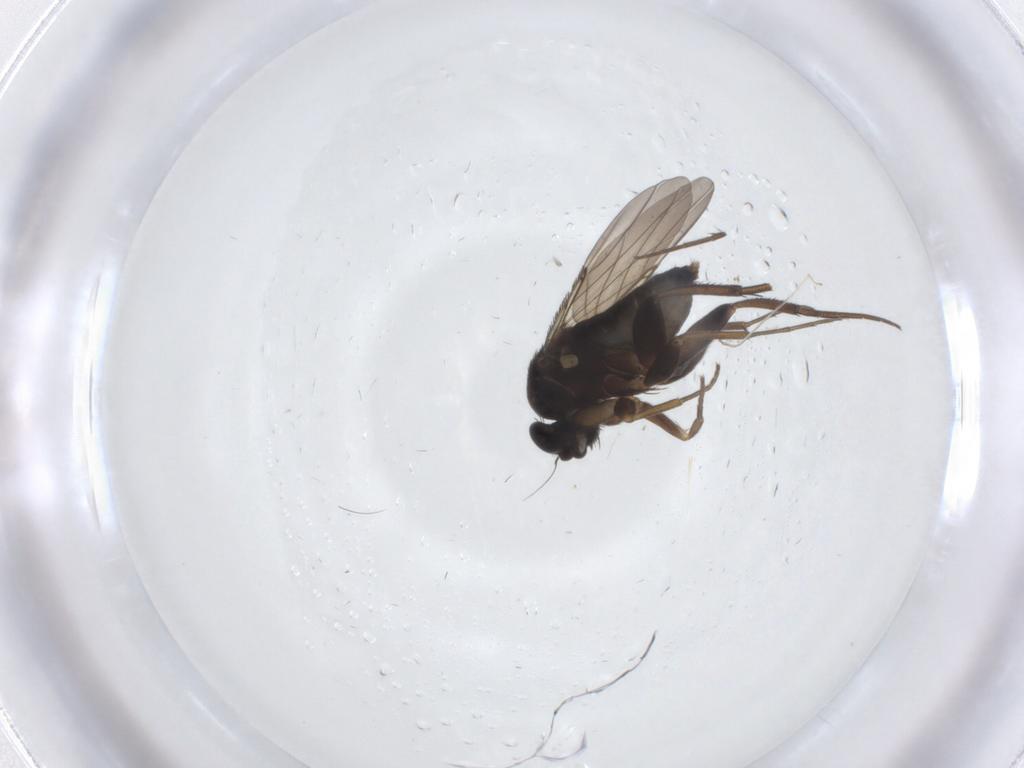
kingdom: Animalia
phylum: Arthropoda
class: Insecta
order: Diptera
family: Phoridae
